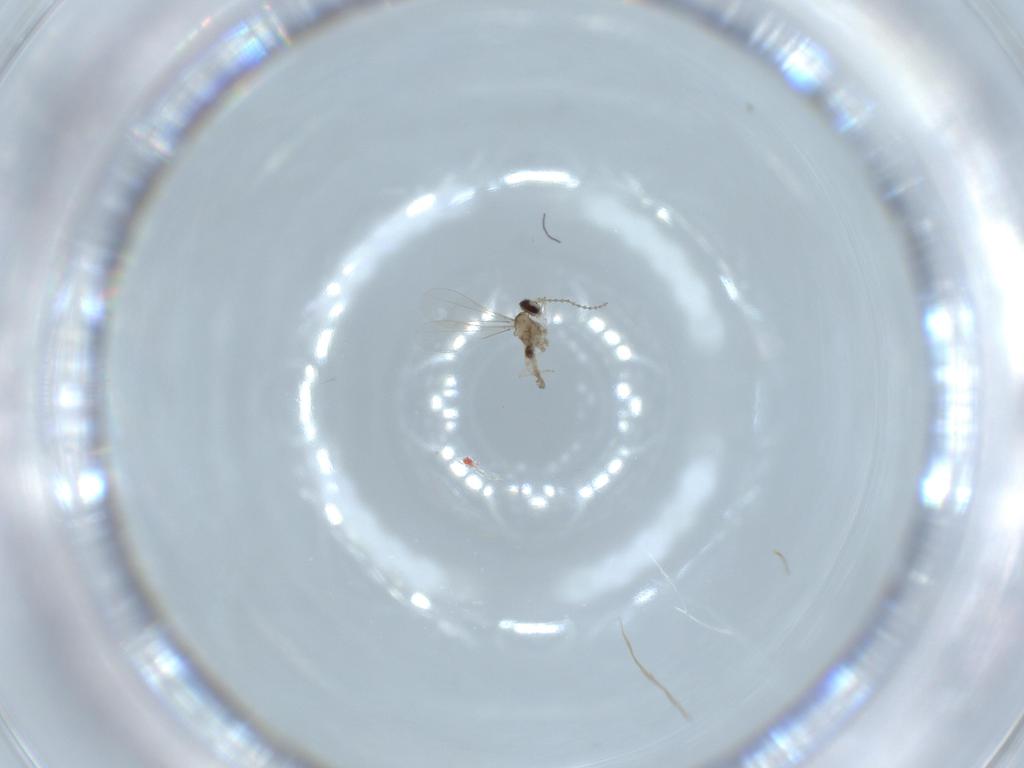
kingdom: Animalia
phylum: Arthropoda
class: Insecta
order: Diptera
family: Cecidomyiidae
